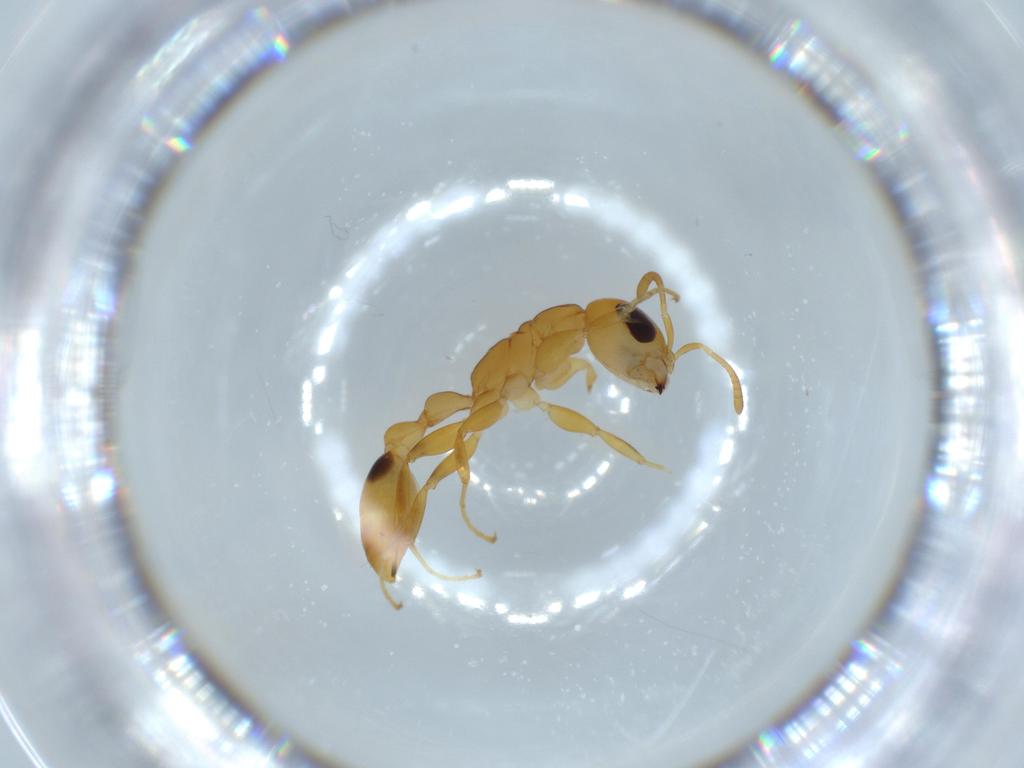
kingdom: Animalia
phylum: Arthropoda
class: Insecta
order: Hymenoptera
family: Formicidae
